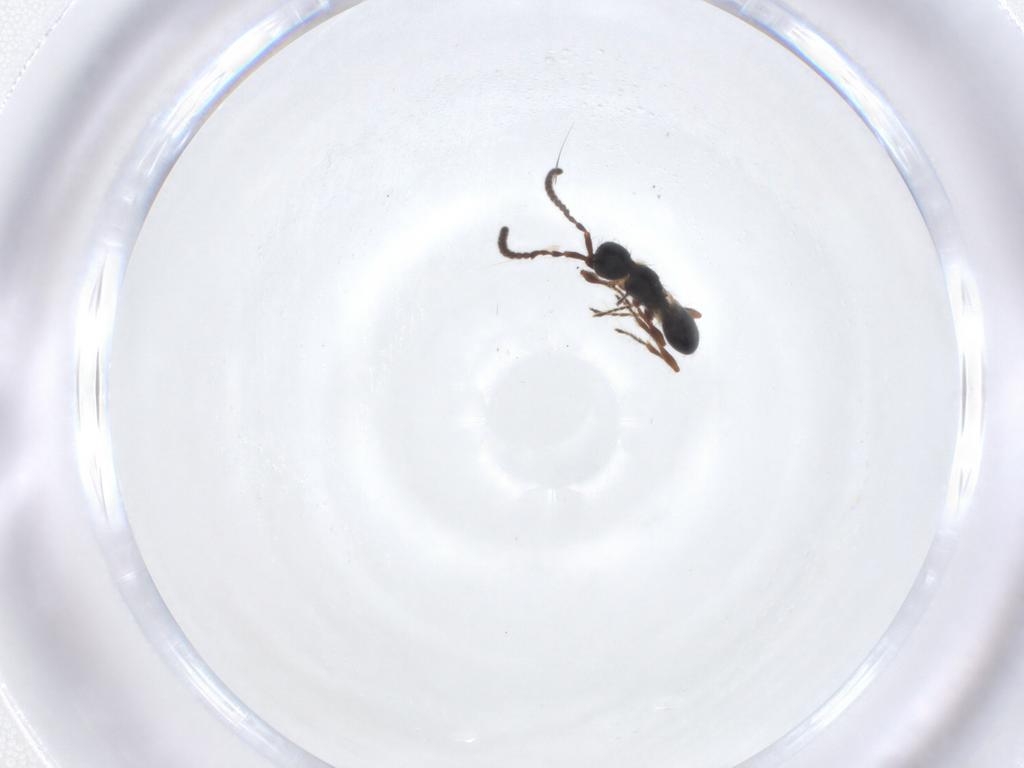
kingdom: Animalia
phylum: Arthropoda
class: Insecta
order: Hymenoptera
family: Diapriidae
